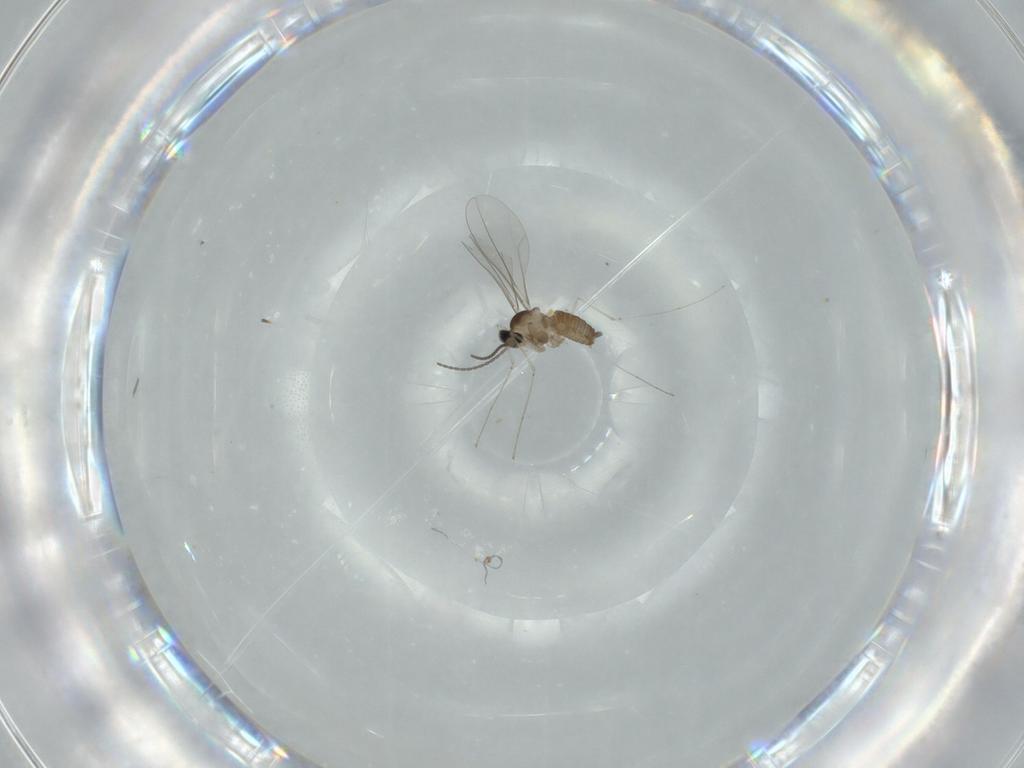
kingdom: Animalia
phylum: Arthropoda
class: Insecta
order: Diptera
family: Cecidomyiidae
